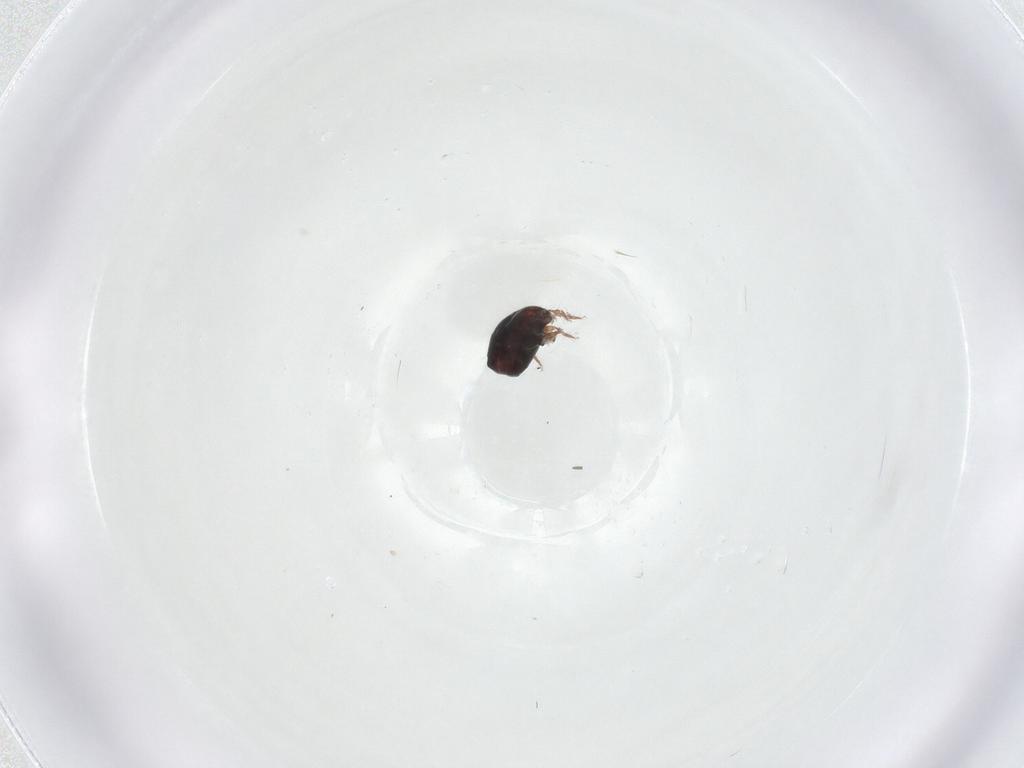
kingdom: Animalia
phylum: Arthropoda
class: Arachnida
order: Sarcoptiformes
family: Galumnidae
